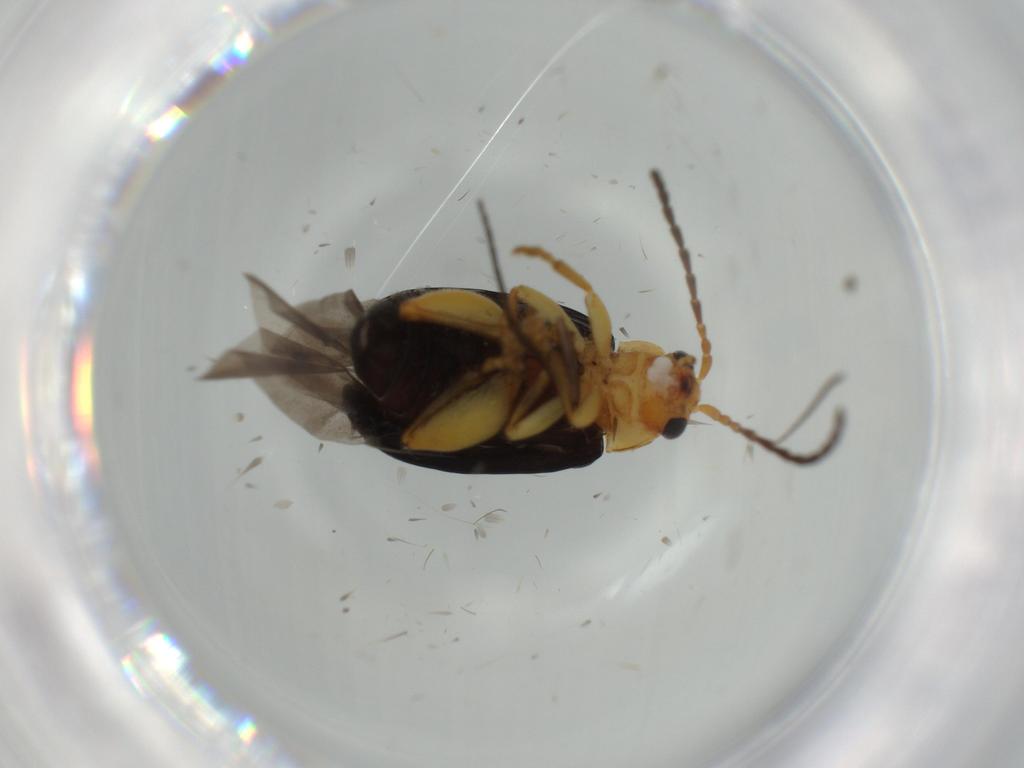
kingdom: Animalia
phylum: Arthropoda
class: Insecta
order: Coleoptera
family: Chrysomelidae
